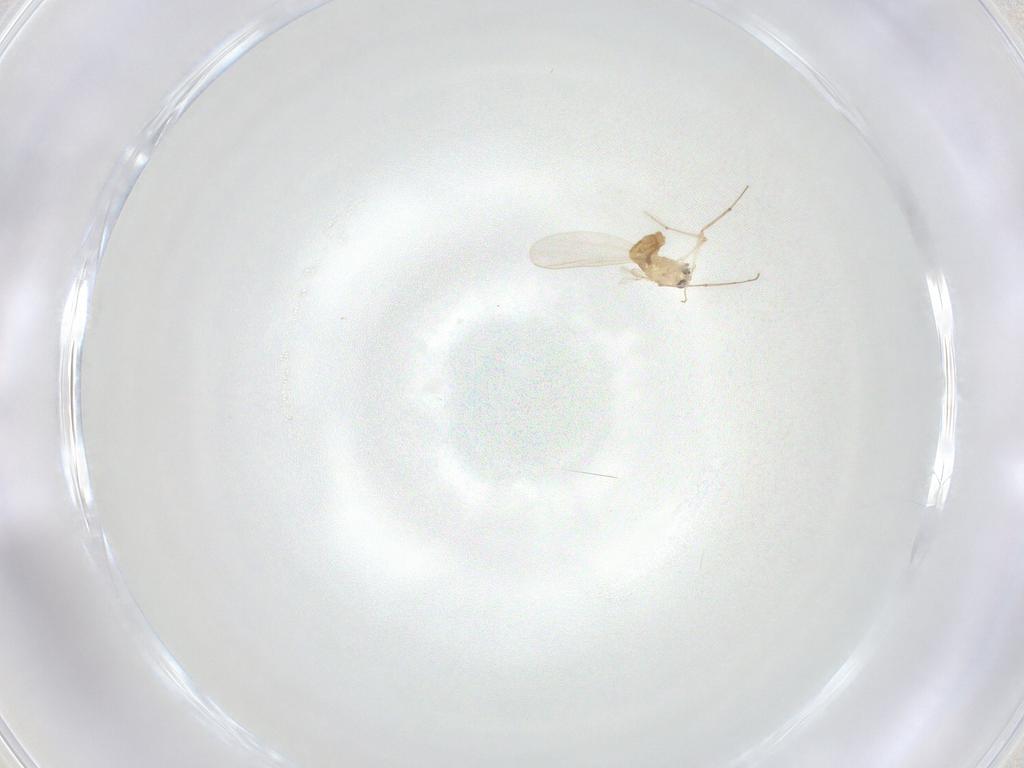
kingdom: Animalia
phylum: Arthropoda
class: Insecta
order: Diptera
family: Chironomidae
